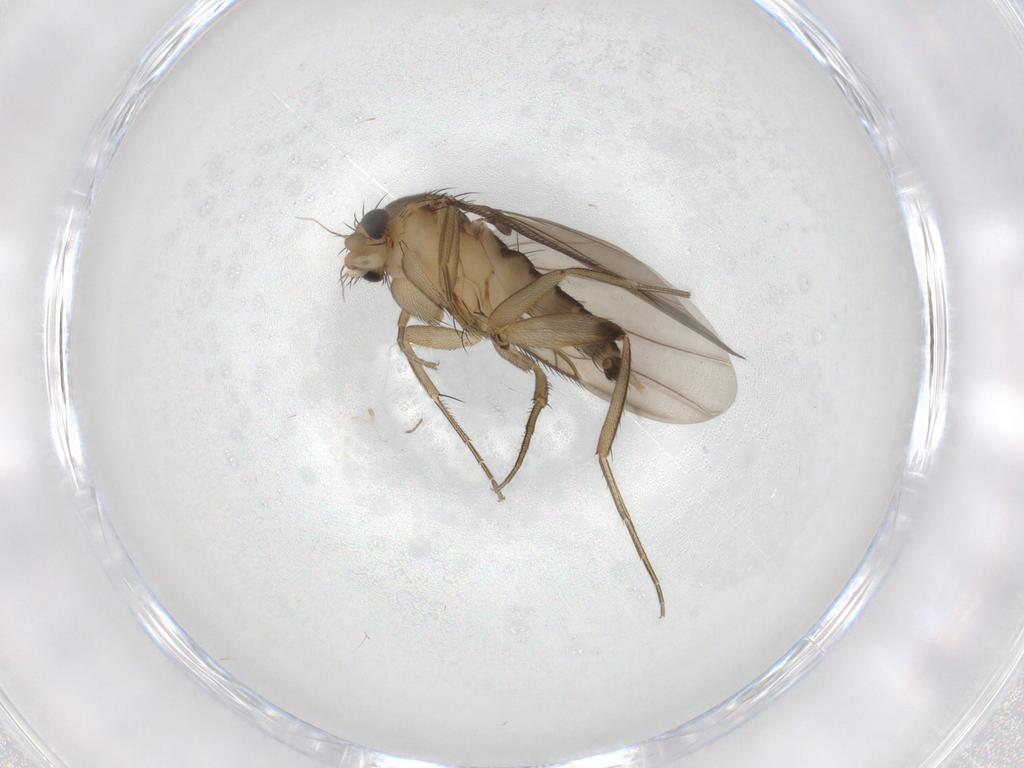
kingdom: Animalia
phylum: Arthropoda
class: Insecta
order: Diptera
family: Phoridae
